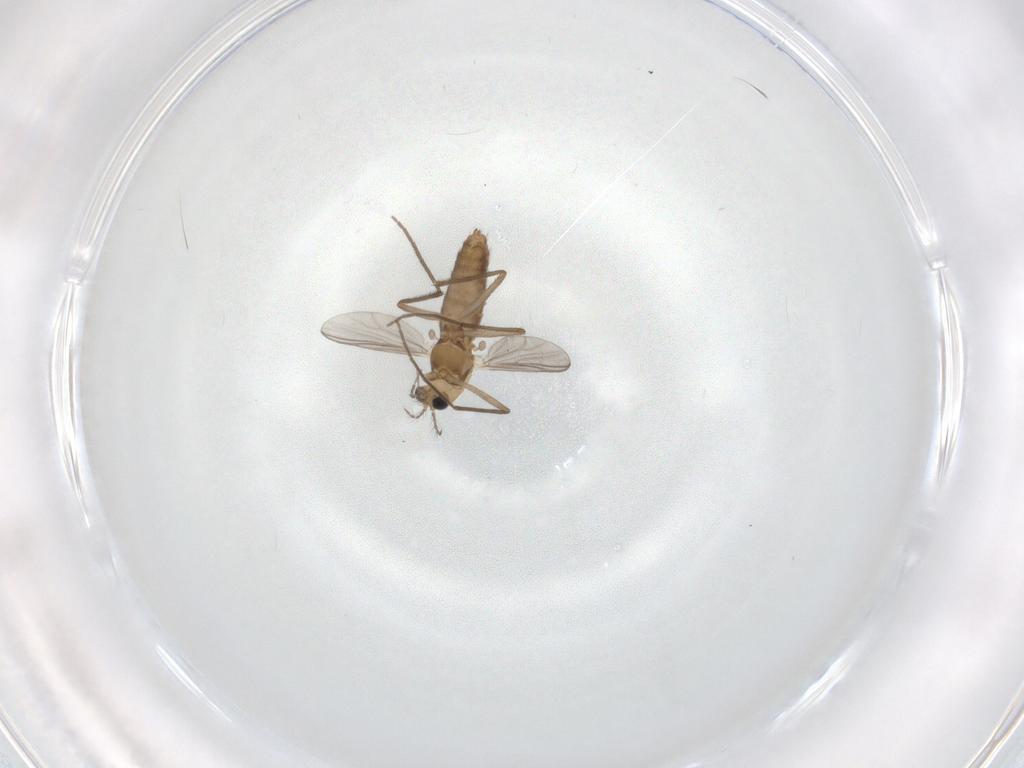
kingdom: Animalia
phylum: Arthropoda
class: Insecta
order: Diptera
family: Chironomidae
